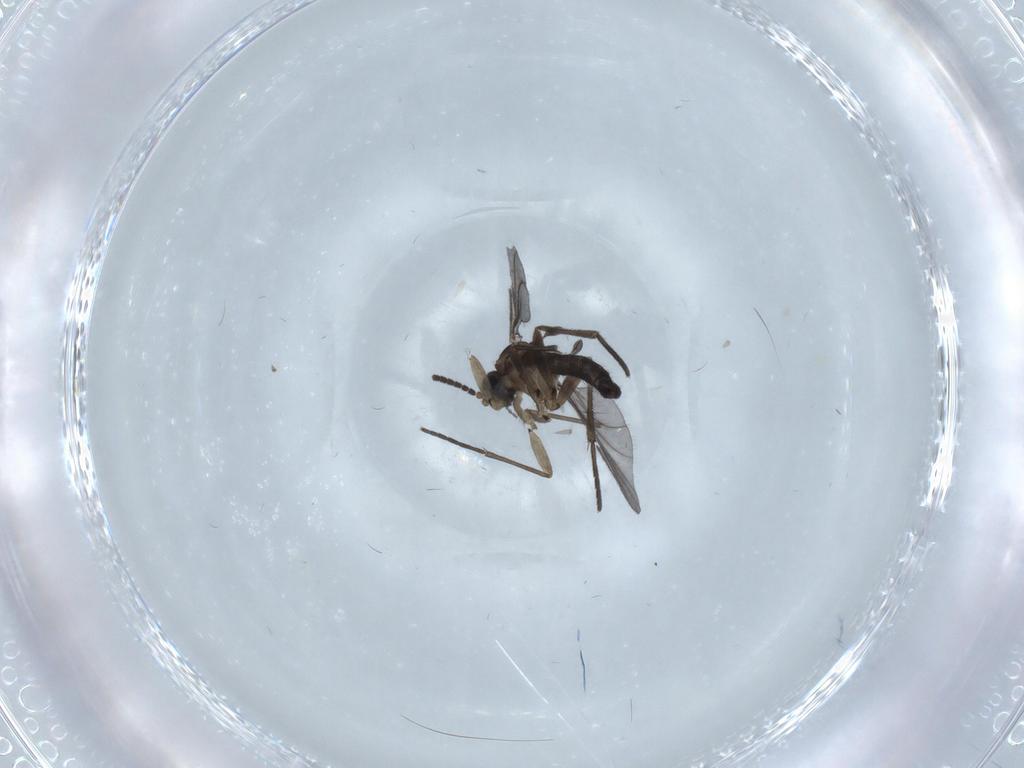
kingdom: Animalia
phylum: Arthropoda
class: Insecta
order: Diptera
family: Sciaridae
